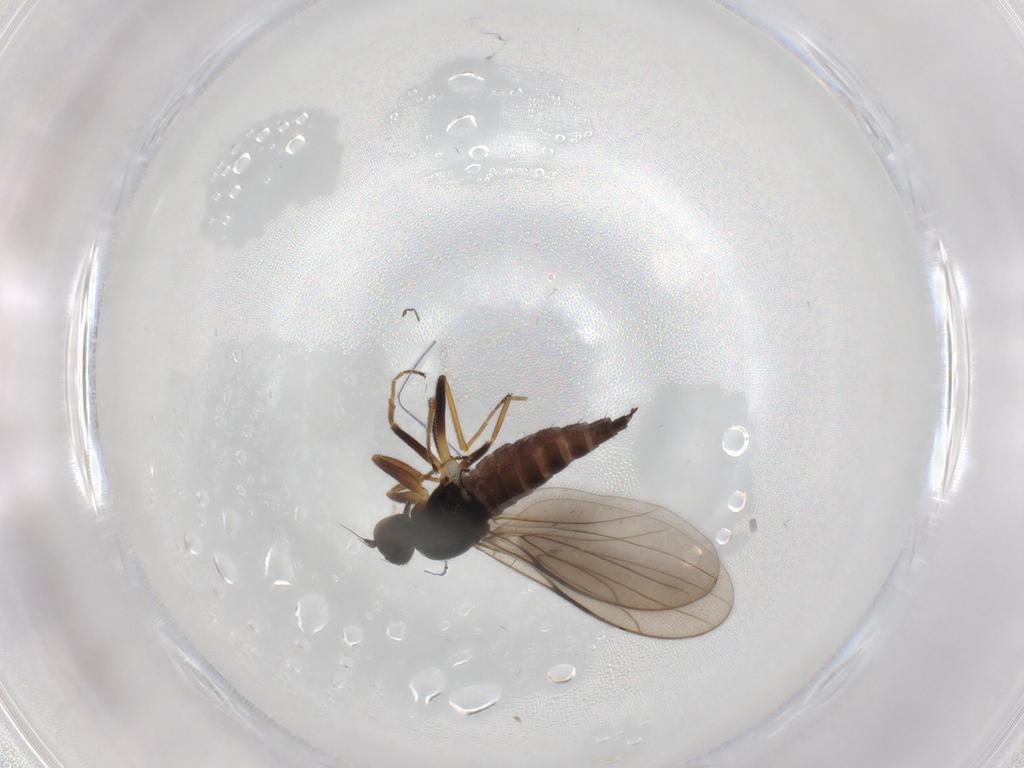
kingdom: Animalia
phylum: Arthropoda
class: Insecta
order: Diptera
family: Hybotidae
